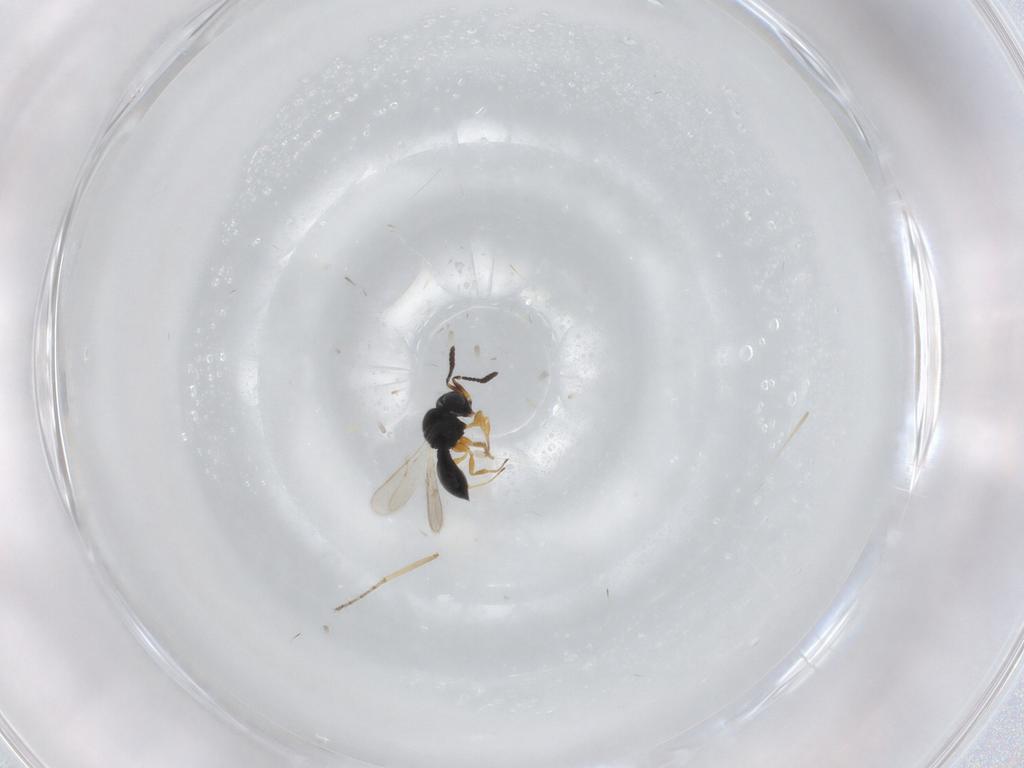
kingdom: Animalia
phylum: Arthropoda
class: Insecta
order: Hymenoptera
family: Scelionidae
